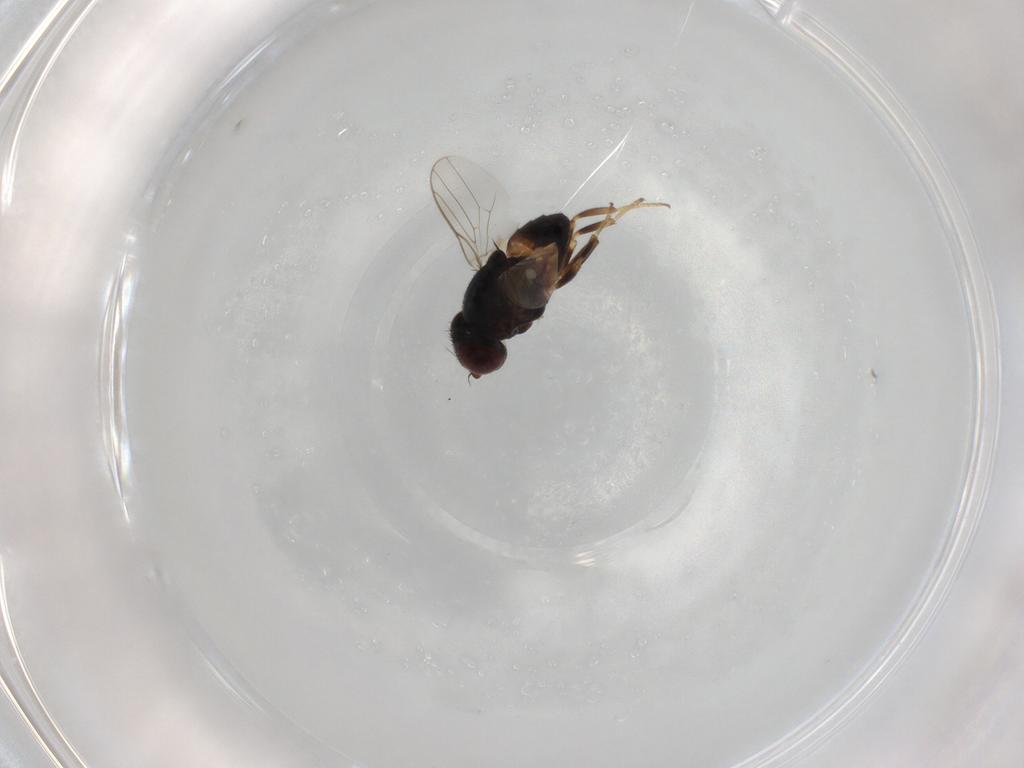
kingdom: Animalia
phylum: Arthropoda
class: Insecta
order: Diptera
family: Chloropidae
